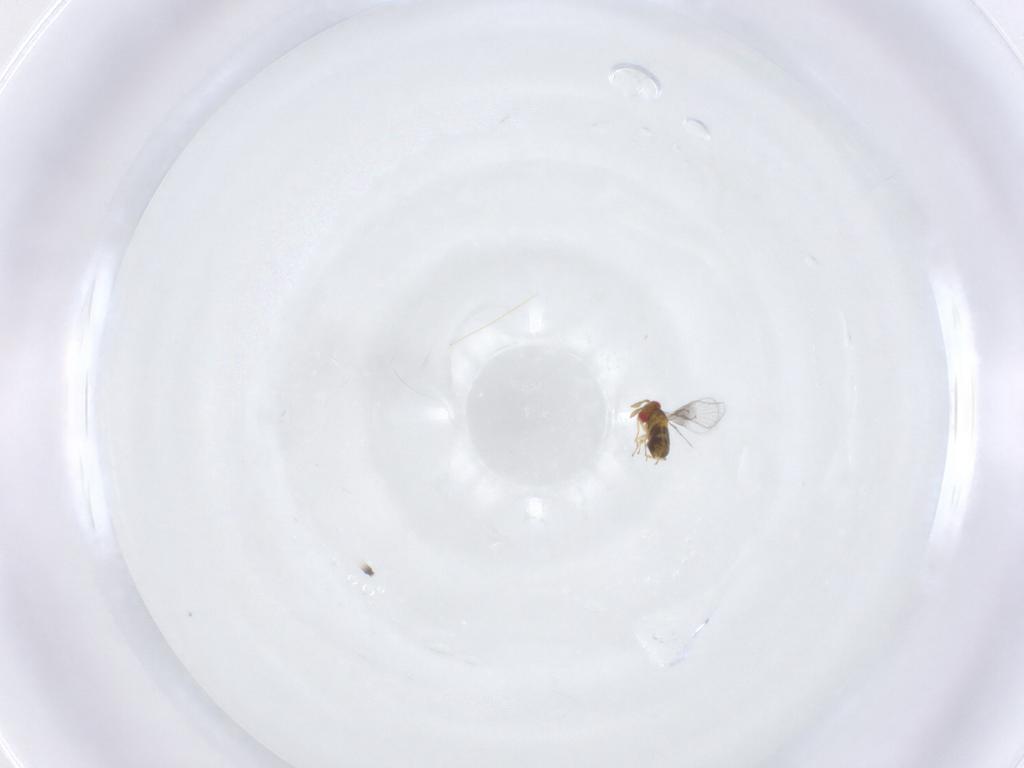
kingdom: Animalia
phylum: Arthropoda
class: Insecta
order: Hymenoptera
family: Trichogrammatidae
